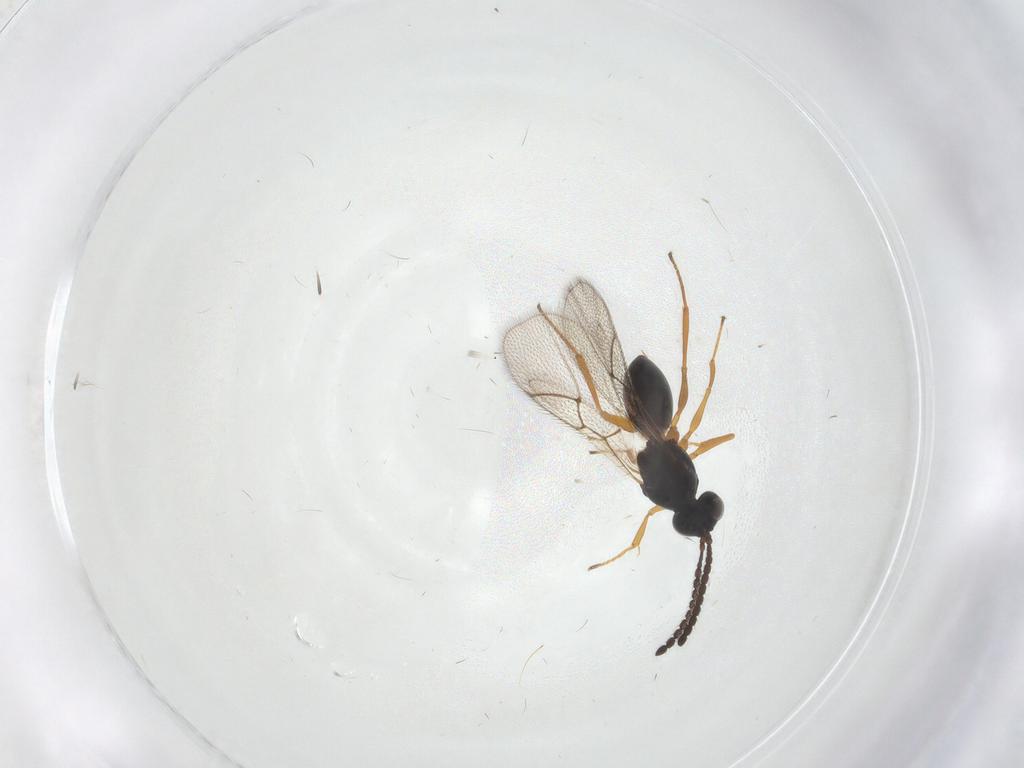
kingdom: Animalia
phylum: Arthropoda
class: Insecta
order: Hymenoptera
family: Figitidae
